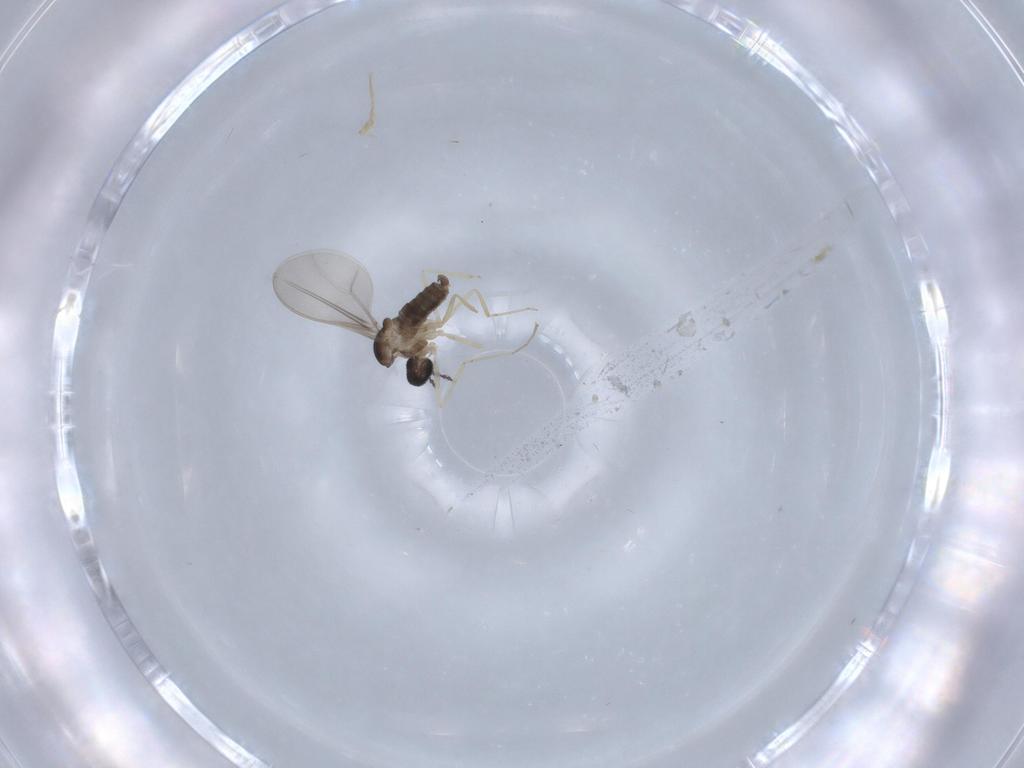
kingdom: Animalia
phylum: Arthropoda
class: Insecta
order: Diptera
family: Cecidomyiidae
